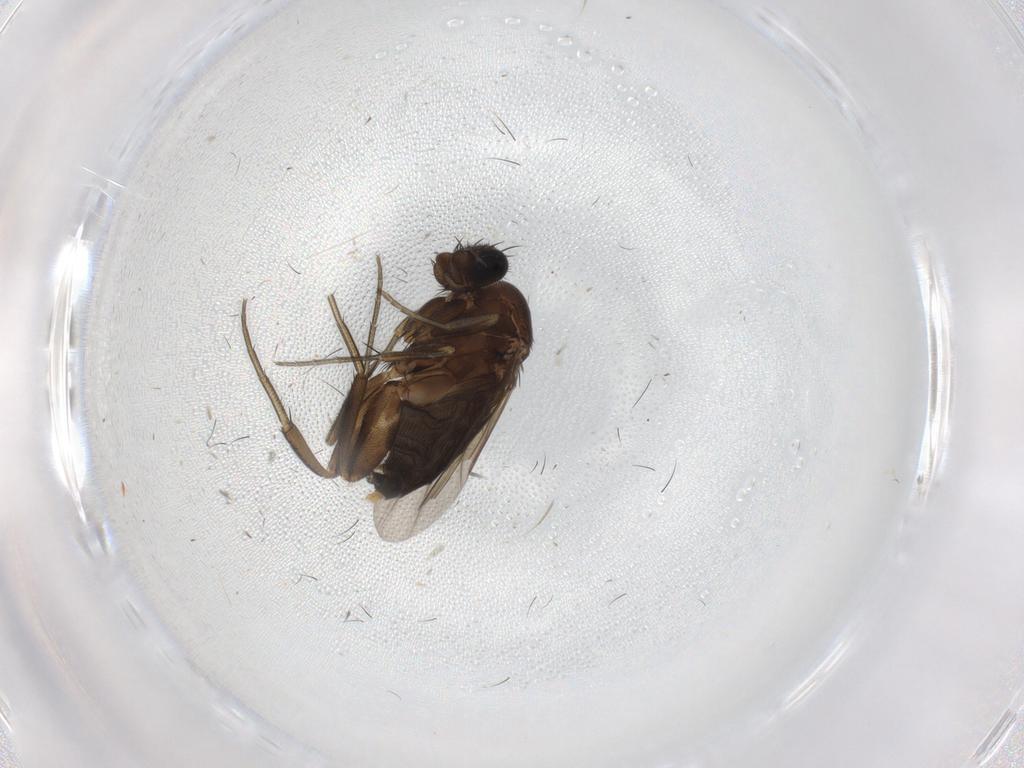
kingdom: Animalia
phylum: Arthropoda
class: Insecta
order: Diptera
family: Phoridae
